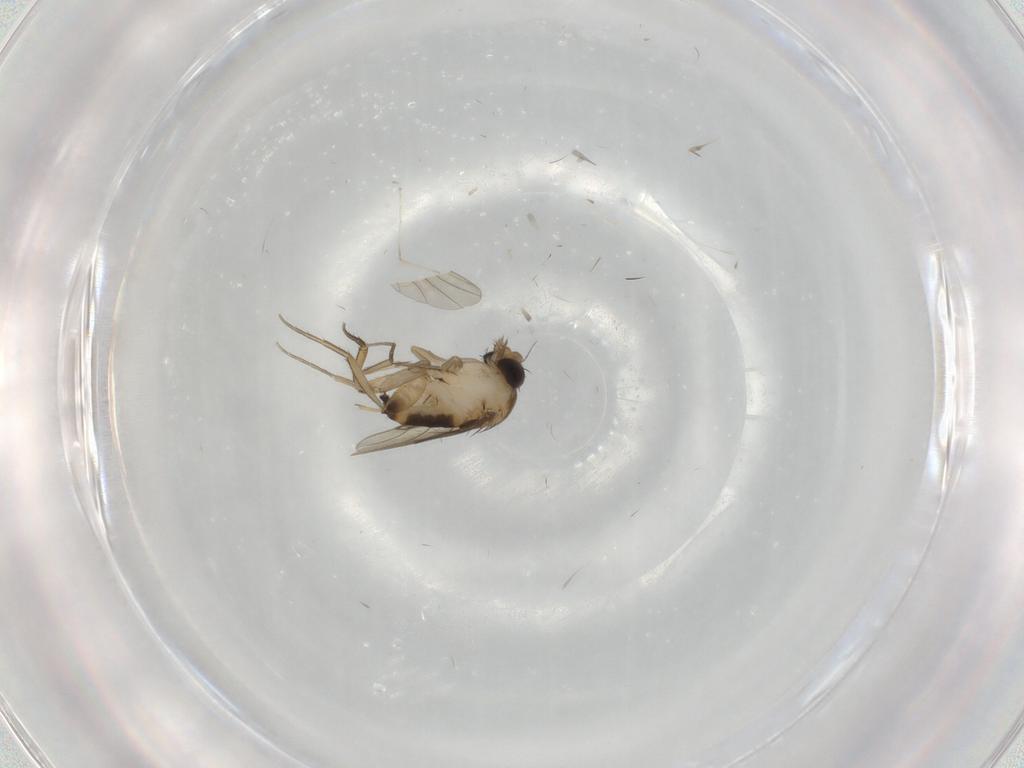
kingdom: Animalia
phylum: Arthropoda
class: Insecta
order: Diptera
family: Phoridae
